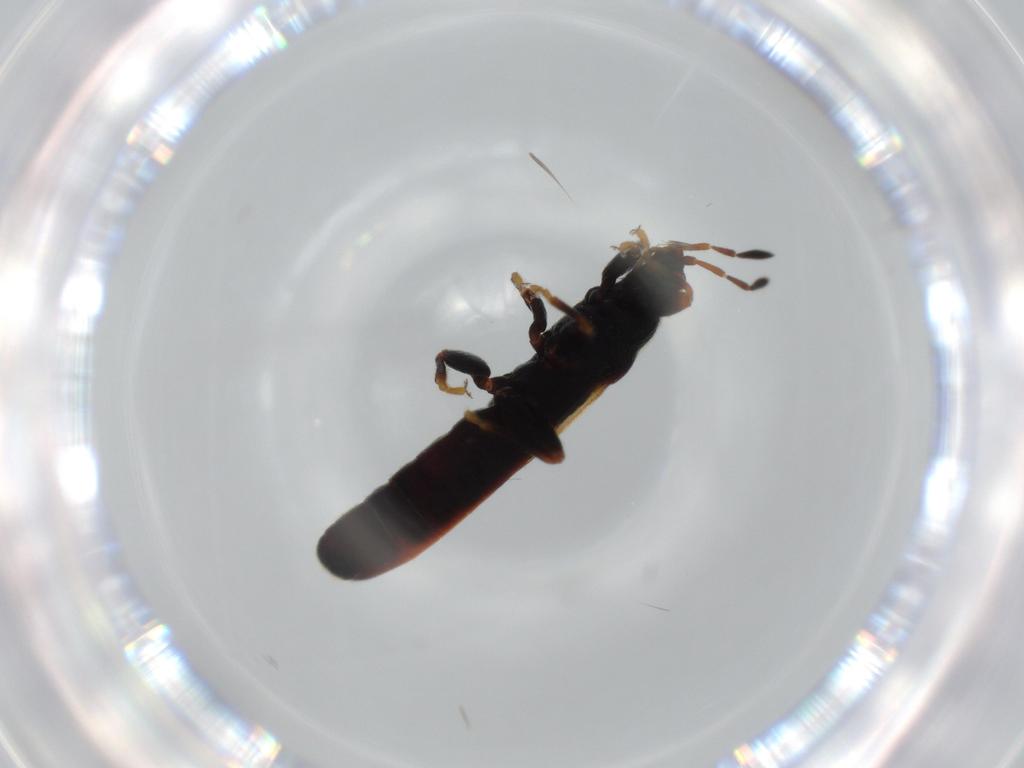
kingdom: Animalia
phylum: Arthropoda
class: Insecta
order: Hemiptera
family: Blissidae
